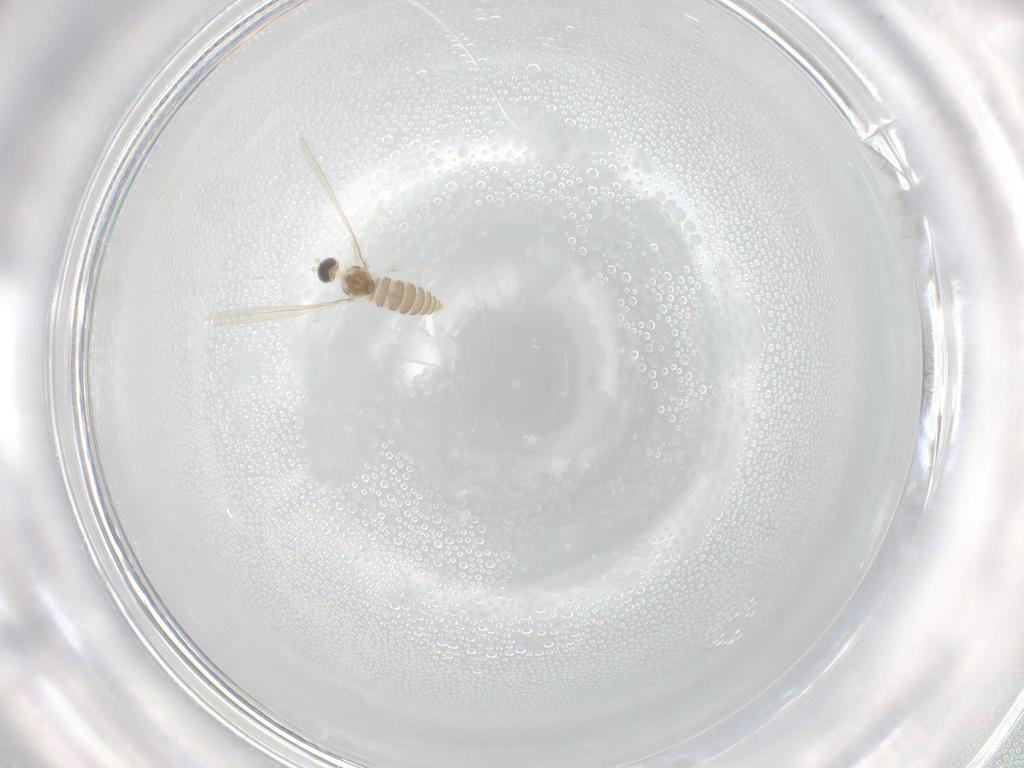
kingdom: Animalia
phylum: Arthropoda
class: Insecta
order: Diptera
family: Cecidomyiidae
